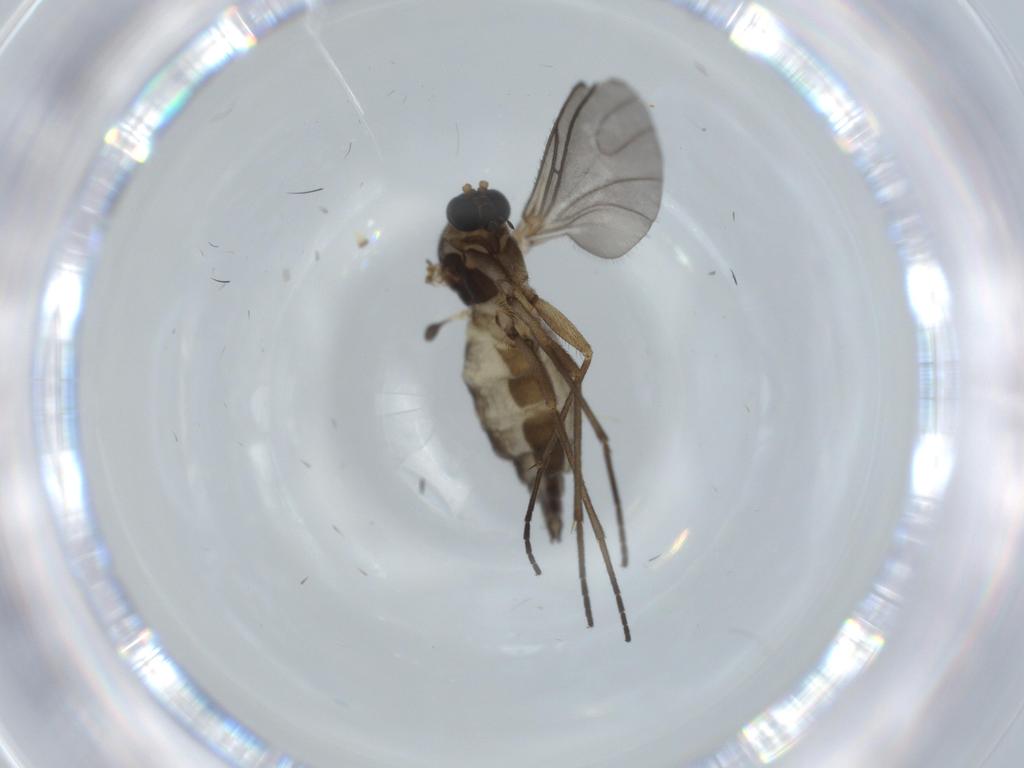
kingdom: Animalia
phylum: Arthropoda
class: Insecta
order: Diptera
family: Sciaridae
